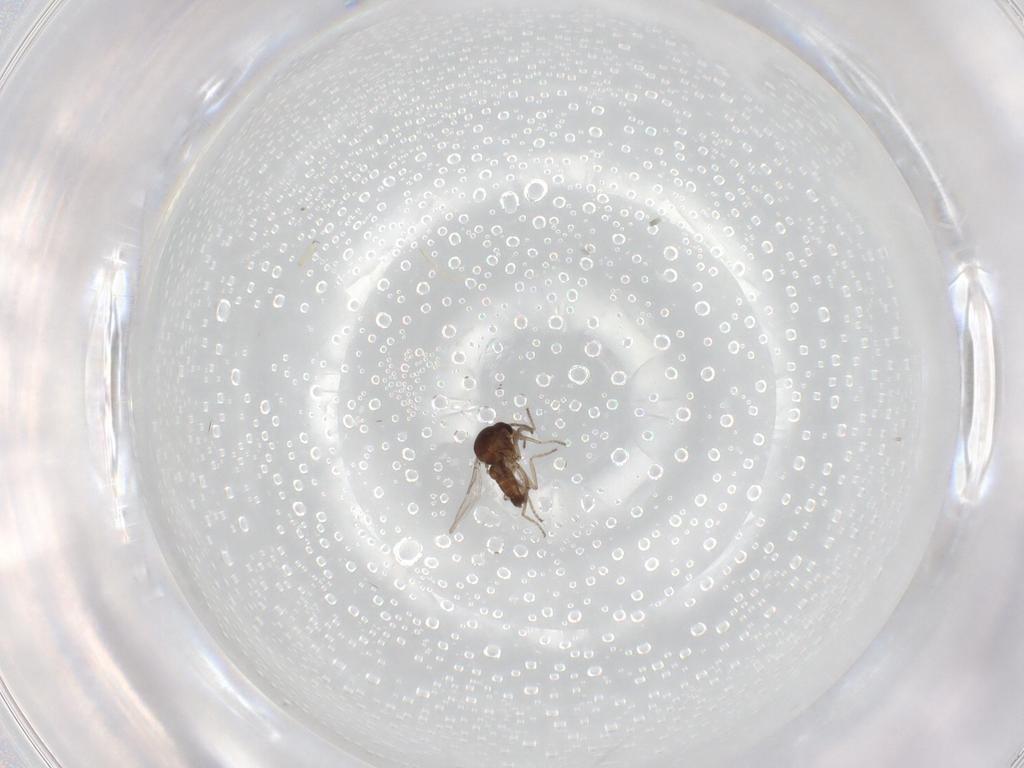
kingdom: Animalia
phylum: Arthropoda
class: Insecta
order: Diptera
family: Ceratopogonidae
